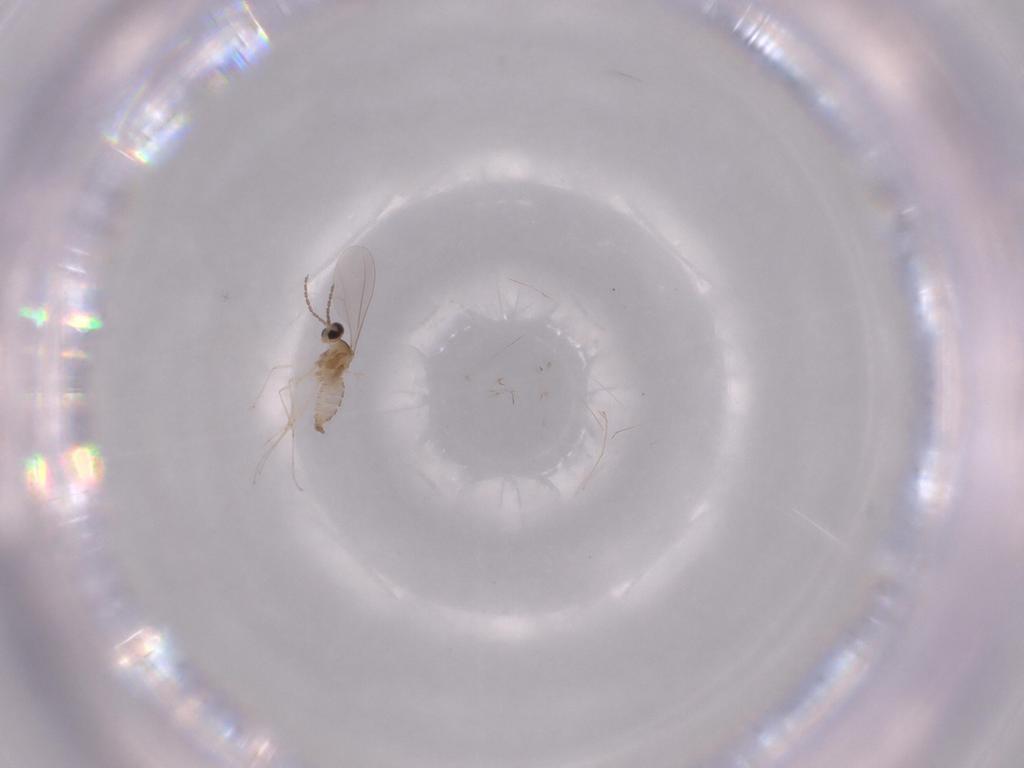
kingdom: Animalia
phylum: Arthropoda
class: Insecta
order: Diptera
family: Cecidomyiidae
